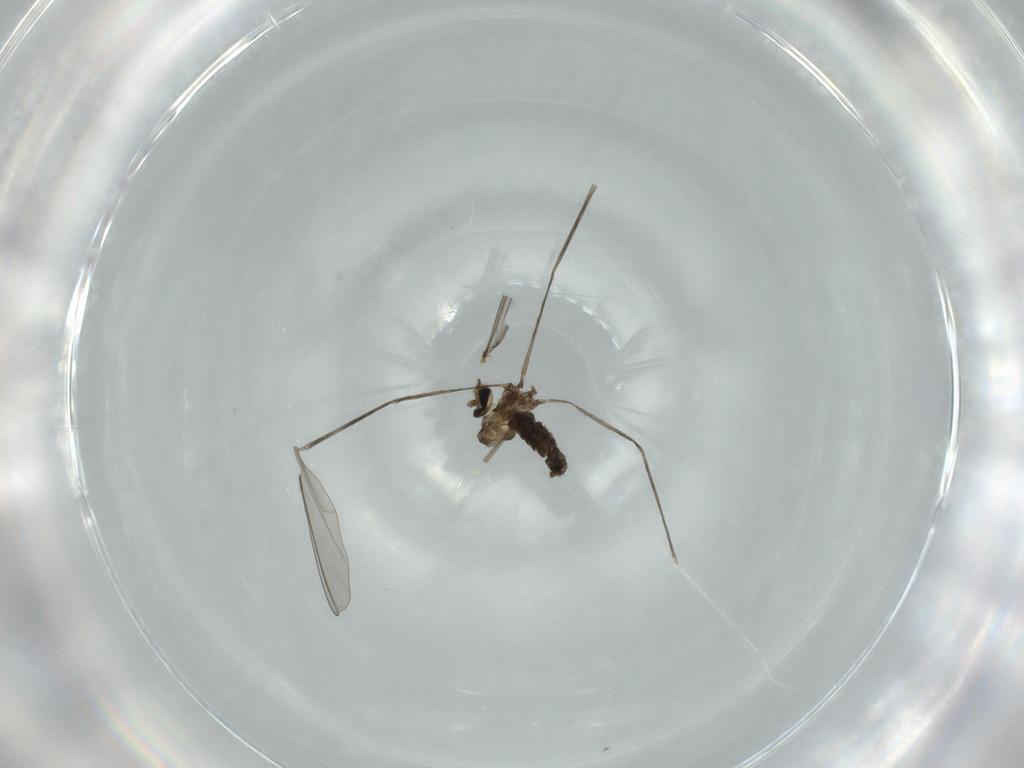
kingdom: Animalia
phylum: Arthropoda
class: Insecta
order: Diptera
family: Cecidomyiidae
